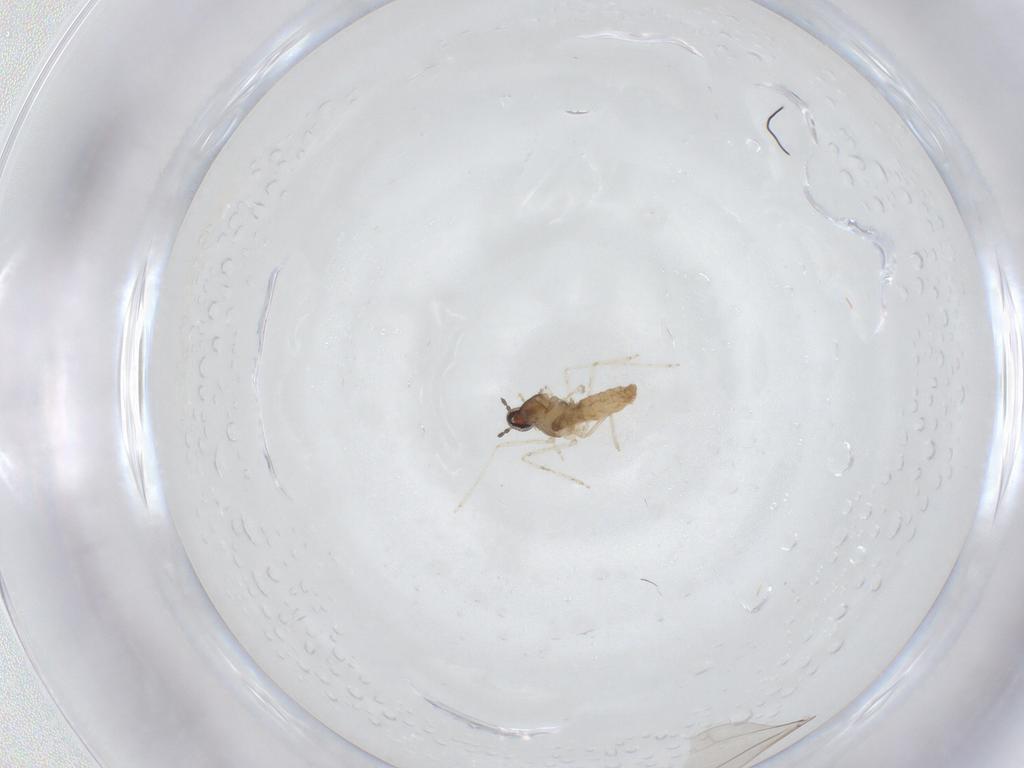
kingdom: Animalia
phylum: Arthropoda
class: Insecta
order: Diptera
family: Cecidomyiidae
